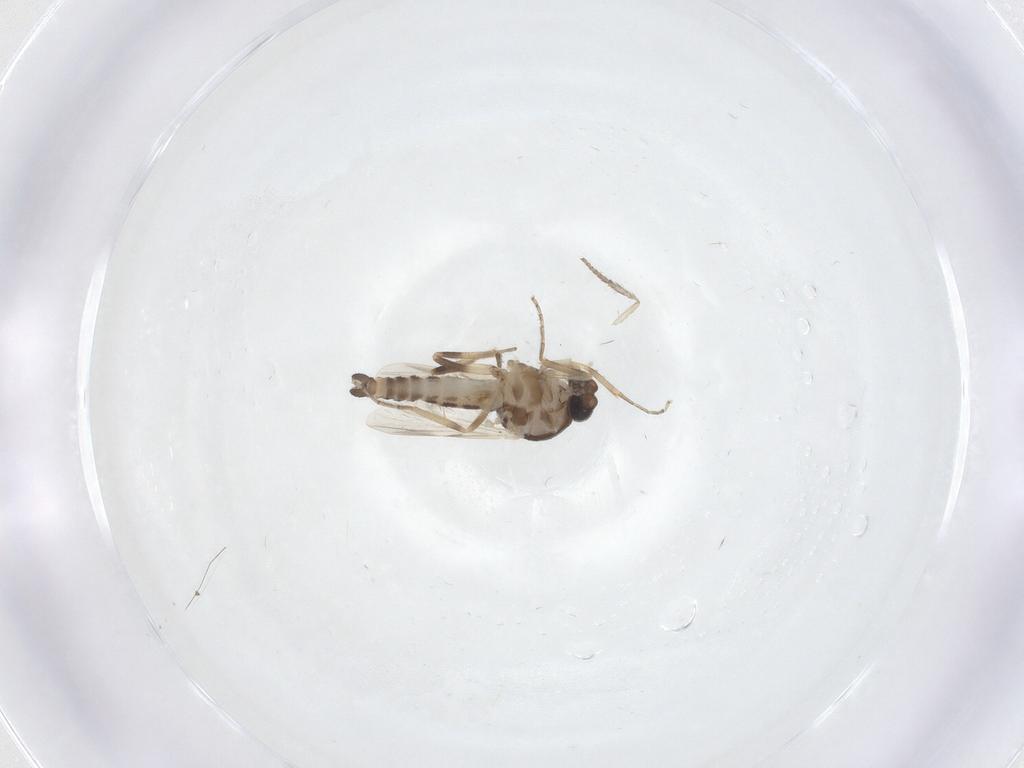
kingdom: Animalia
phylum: Arthropoda
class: Insecta
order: Diptera
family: Ceratopogonidae
